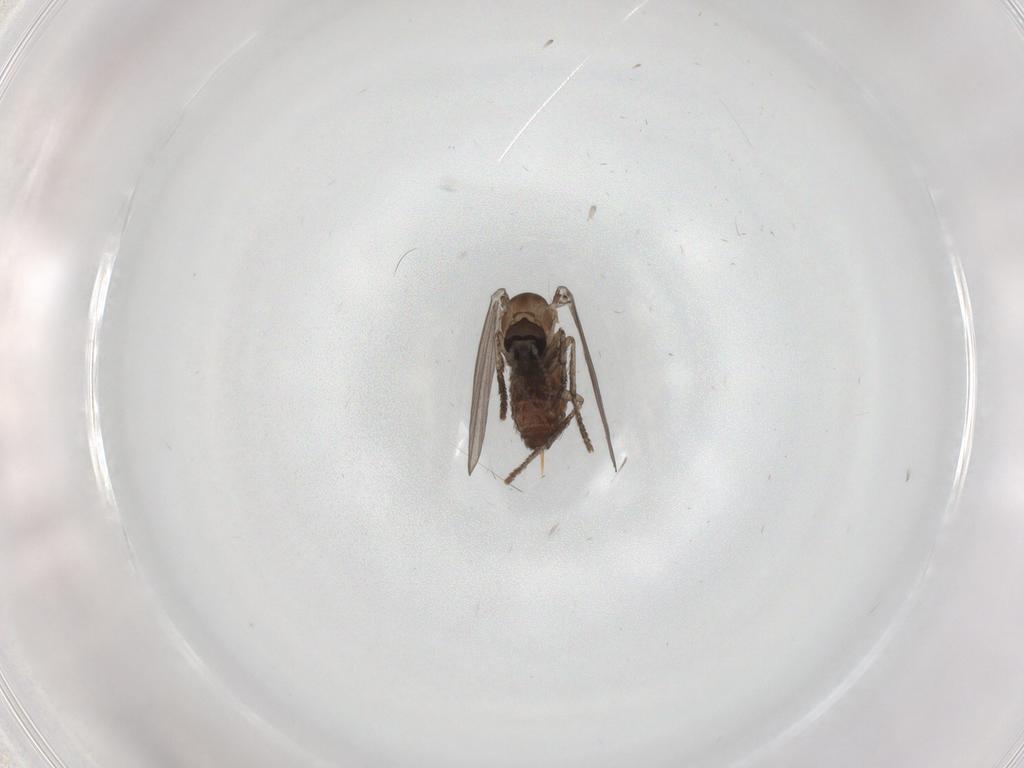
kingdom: Animalia
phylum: Arthropoda
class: Insecta
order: Diptera
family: Psychodidae
